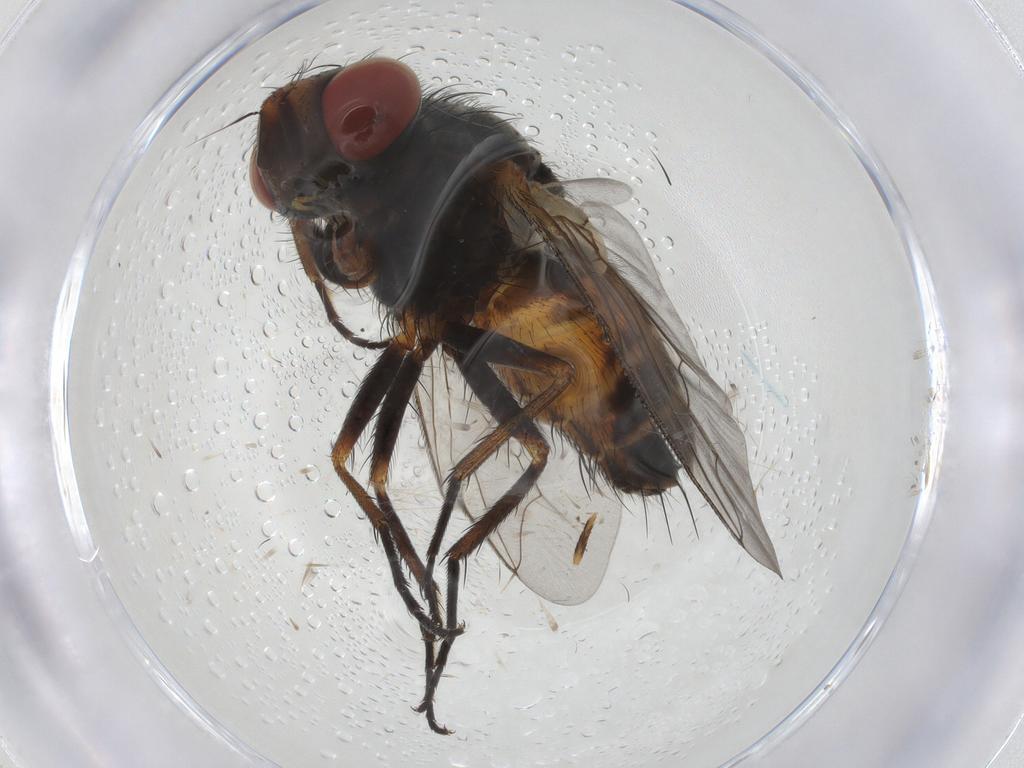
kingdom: Animalia
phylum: Arthropoda
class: Insecta
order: Diptera
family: Sarcophagidae
